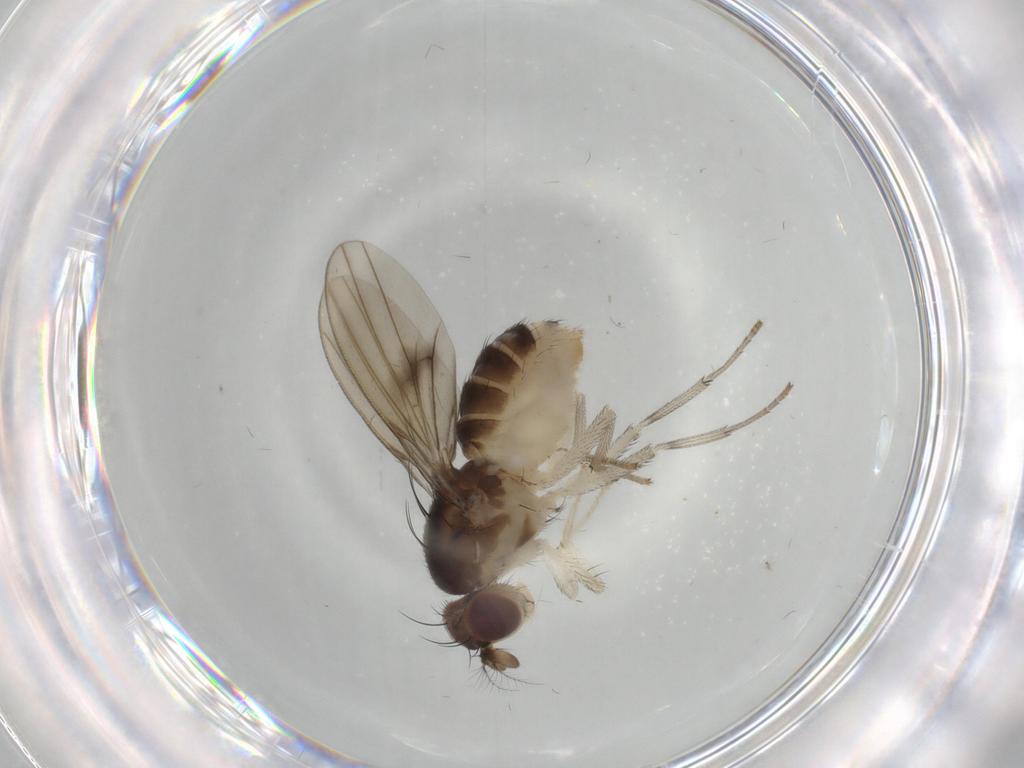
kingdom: Animalia
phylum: Arthropoda
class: Insecta
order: Diptera
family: Lauxaniidae
